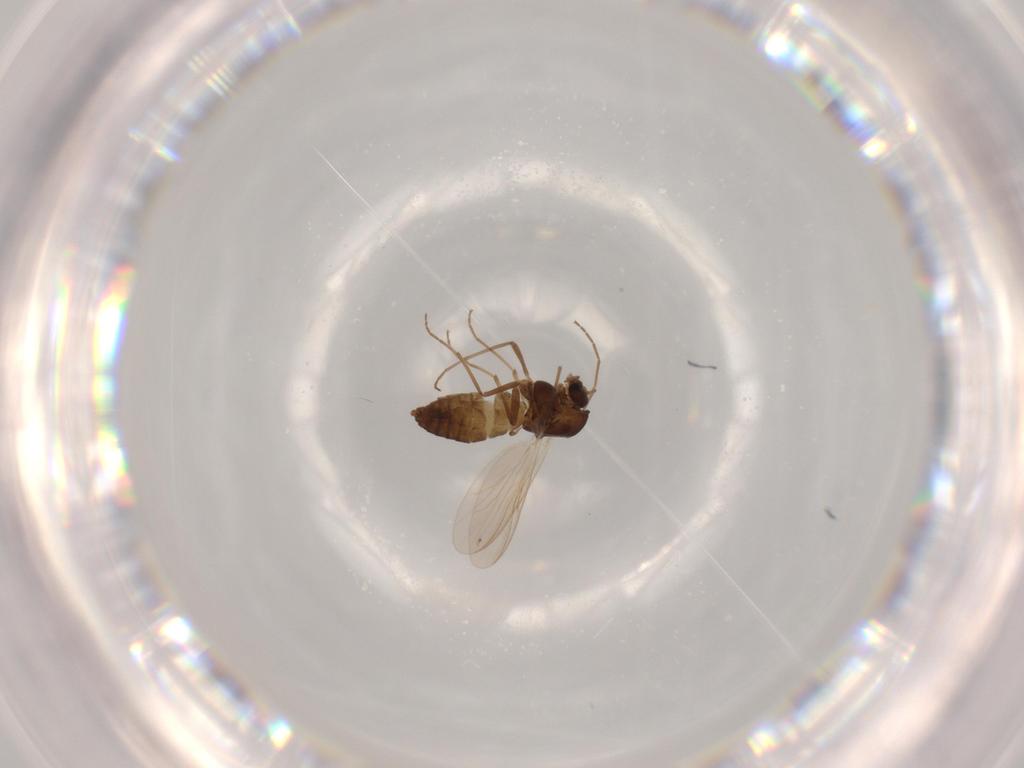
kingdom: Animalia
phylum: Arthropoda
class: Insecta
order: Diptera
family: Chironomidae
